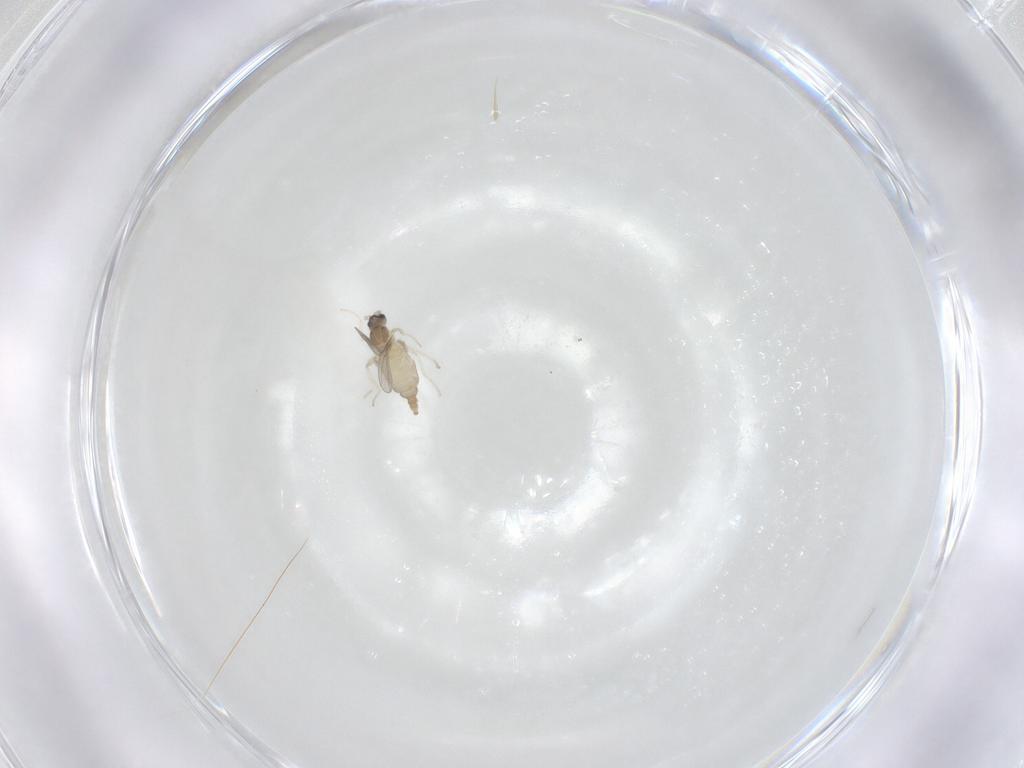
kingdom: Animalia
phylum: Arthropoda
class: Insecta
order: Diptera
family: Cecidomyiidae
